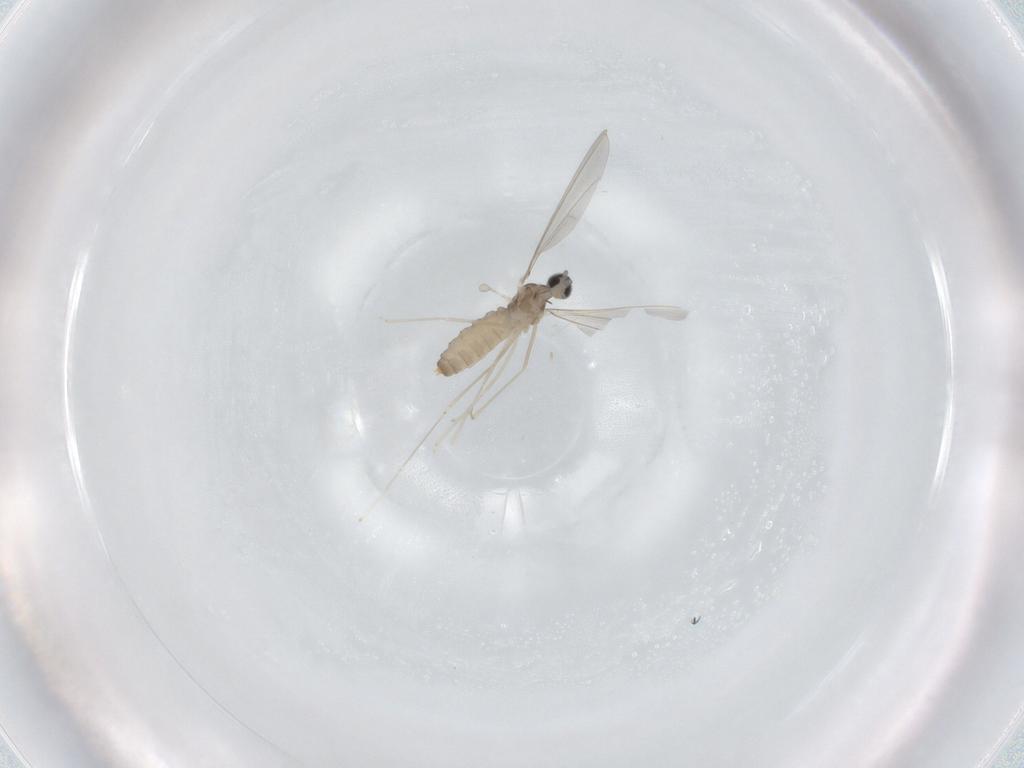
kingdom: Animalia
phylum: Arthropoda
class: Insecta
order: Diptera
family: Cecidomyiidae
